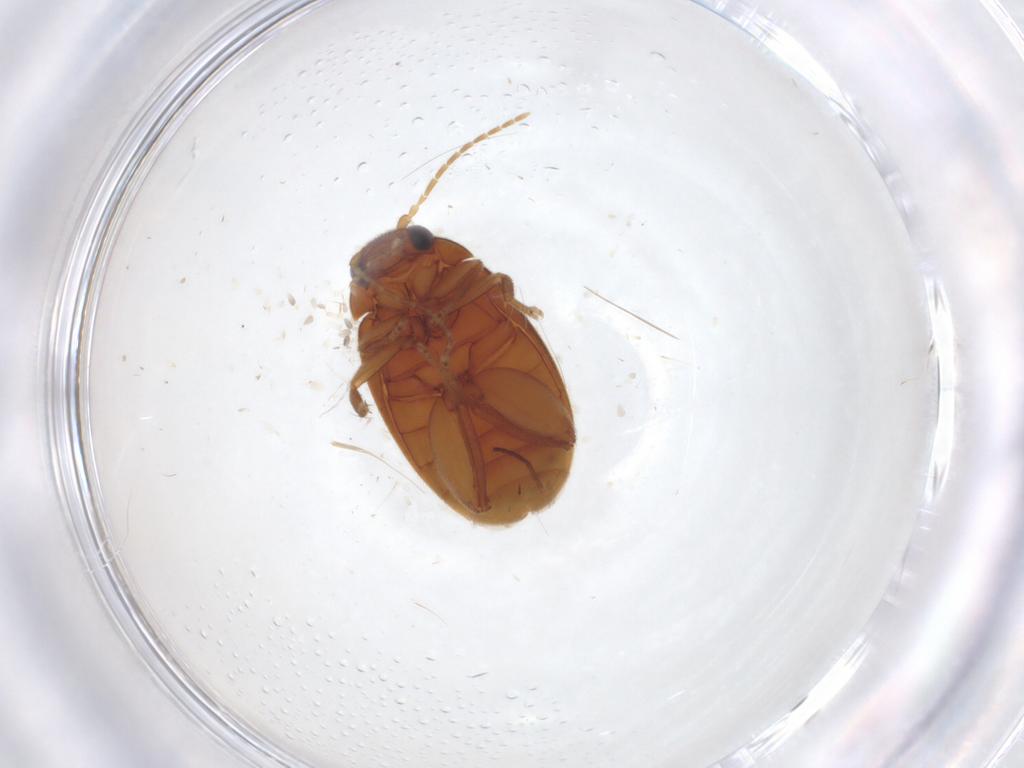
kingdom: Animalia
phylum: Arthropoda
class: Insecta
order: Coleoptera
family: Scirtidae
